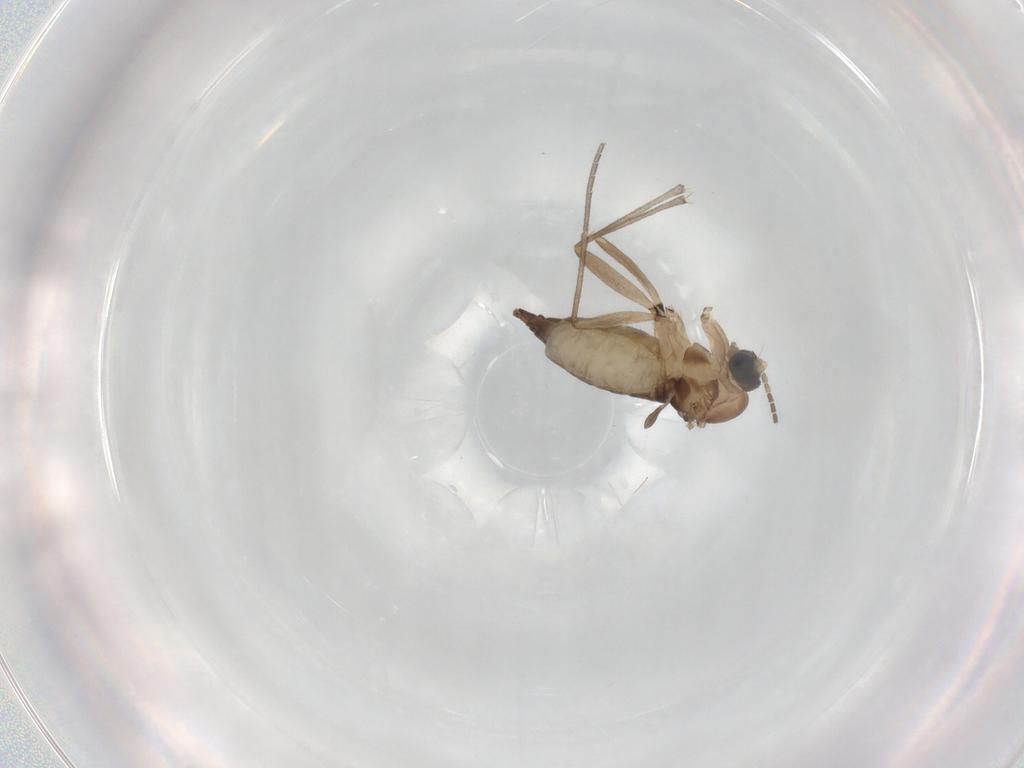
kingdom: Animalia
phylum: Arthropoda
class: Insecta
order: Diptera
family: Sciaridae
